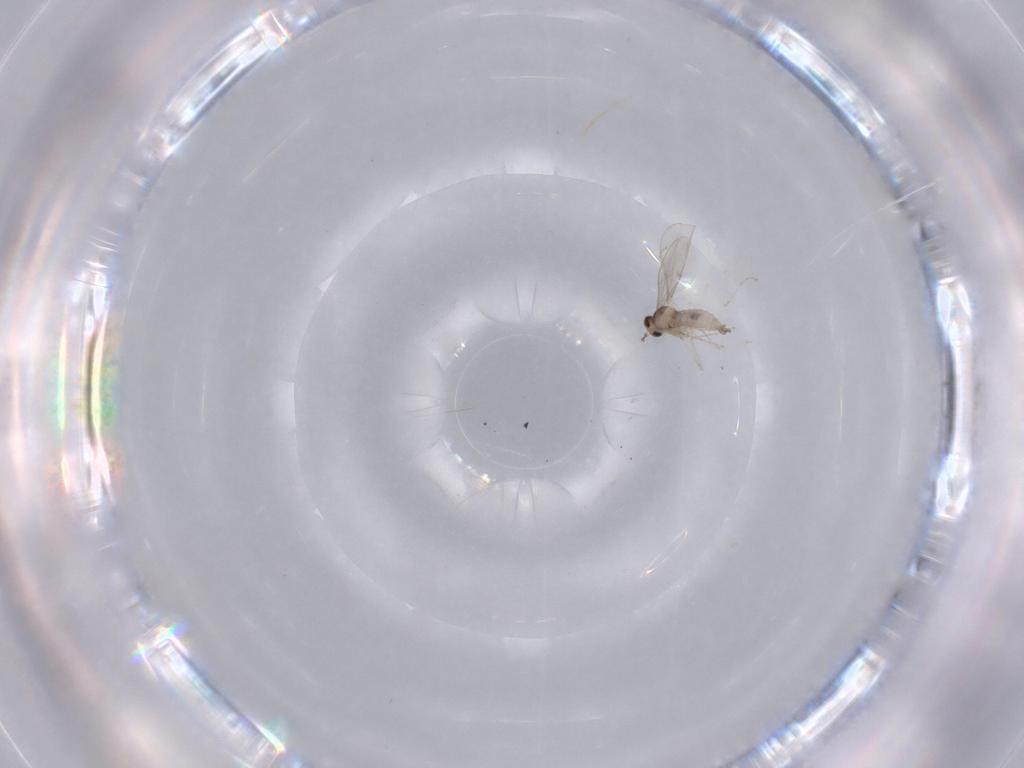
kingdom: Animalia
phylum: Arthropoda
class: Insecta
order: Diptera
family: Cecidomyiidae
